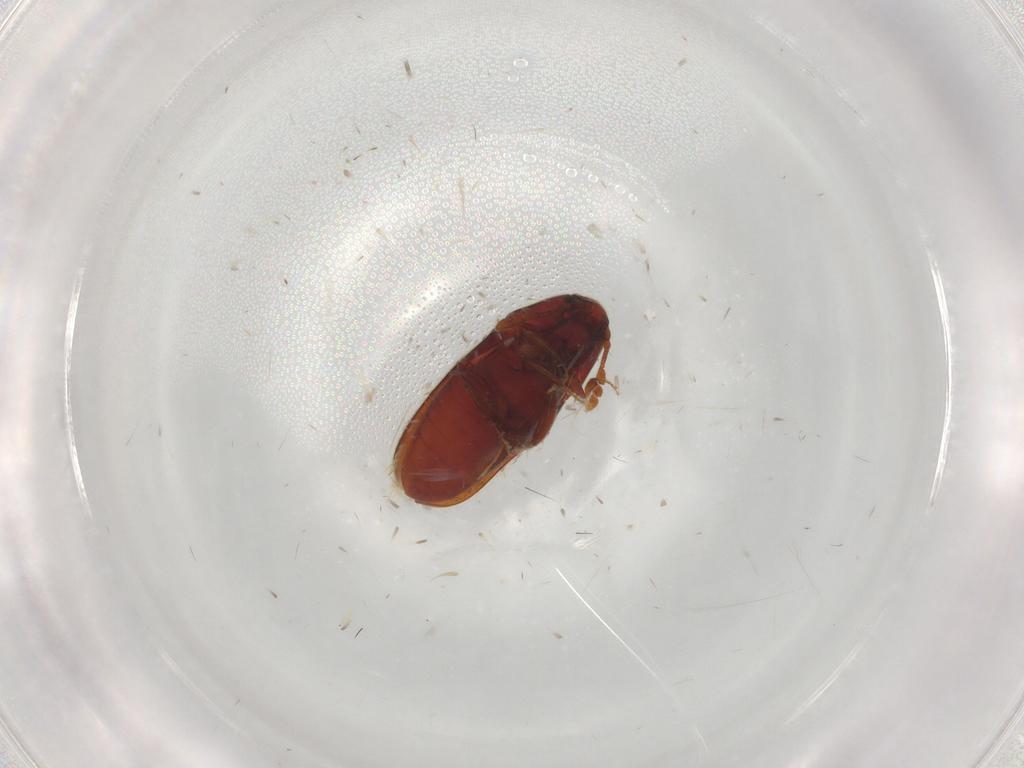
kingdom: Animalia
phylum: Arthropoda
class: Insecta
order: Coleoptera
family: Throscidae
